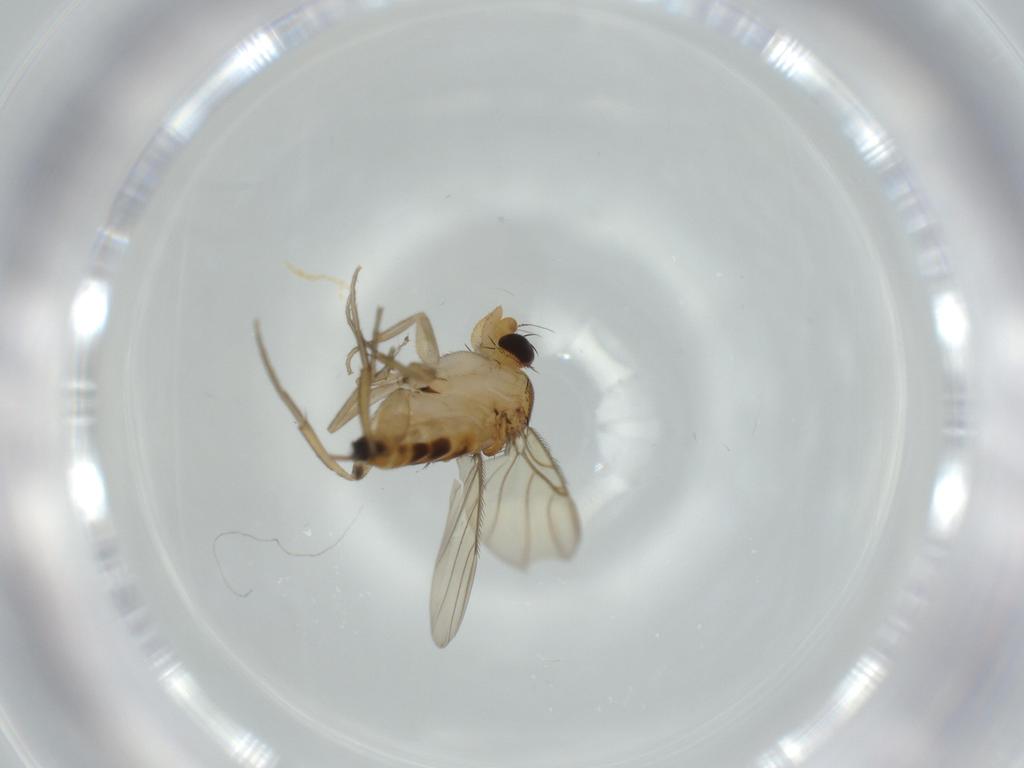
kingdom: Animalia
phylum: Arthropoda
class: Insecta
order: Diptera
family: Phoridae
